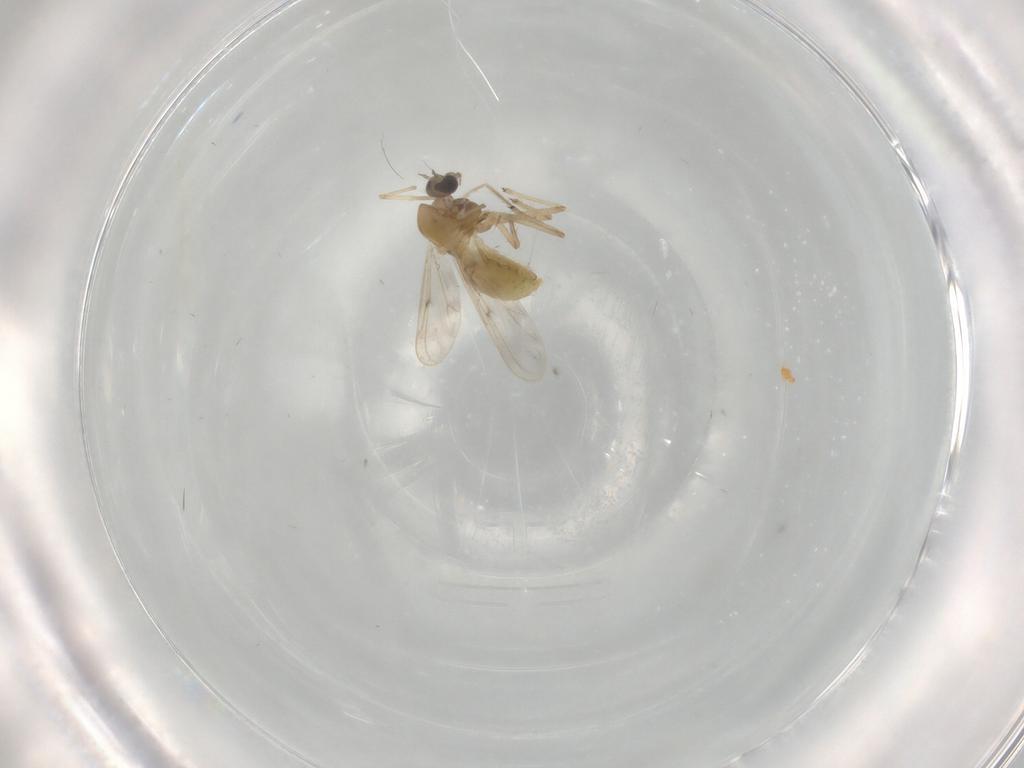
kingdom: Animalia
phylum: Arthropoda
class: Insecta
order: Diptera
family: Chironomidae
